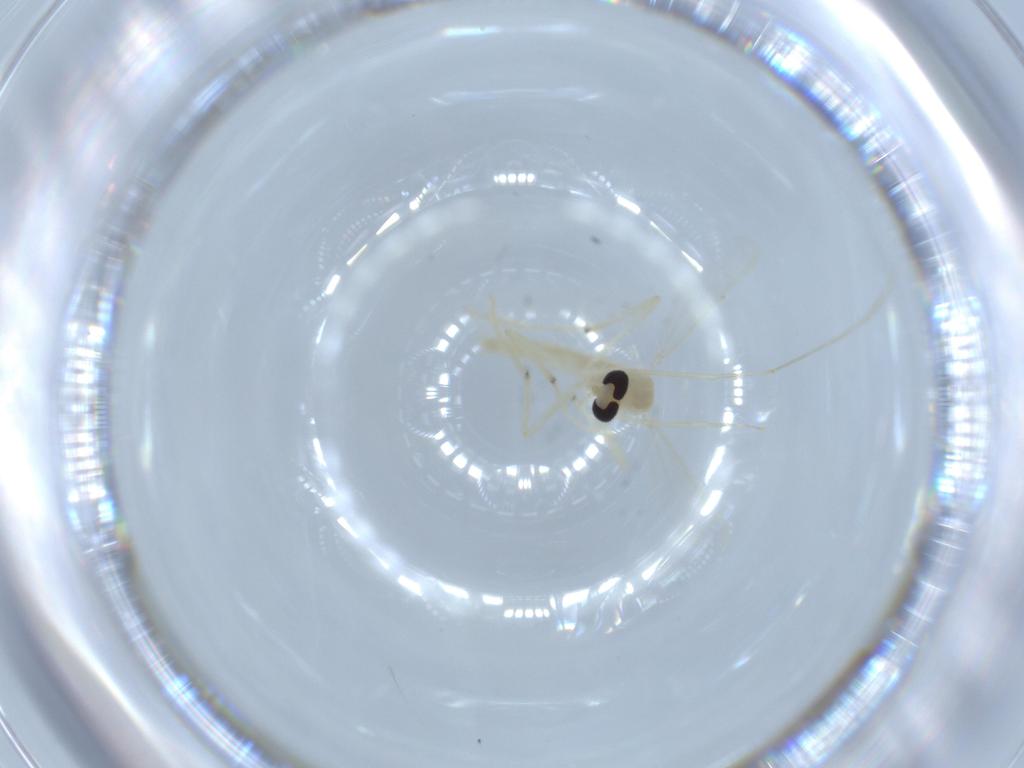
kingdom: Animalia
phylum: Arthropoda
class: Insecta
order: Diptera
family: Chironomidae
